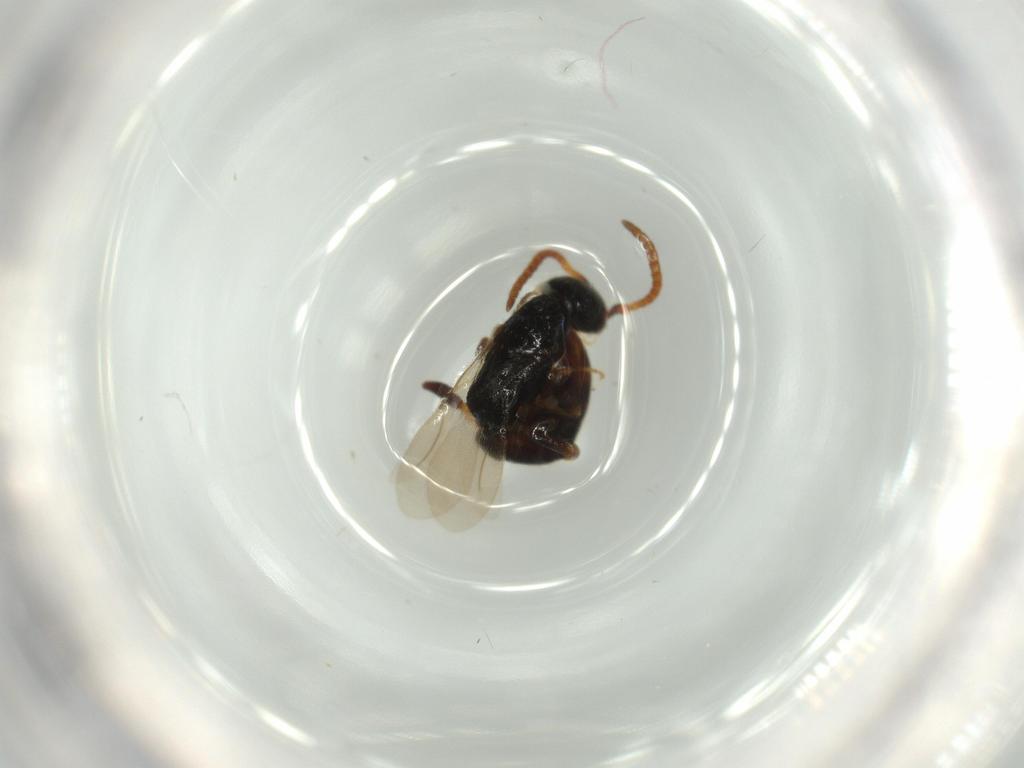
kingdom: Animalia
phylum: Arthropoda
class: Insecta
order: Hymenoptera
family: Bethylidae
